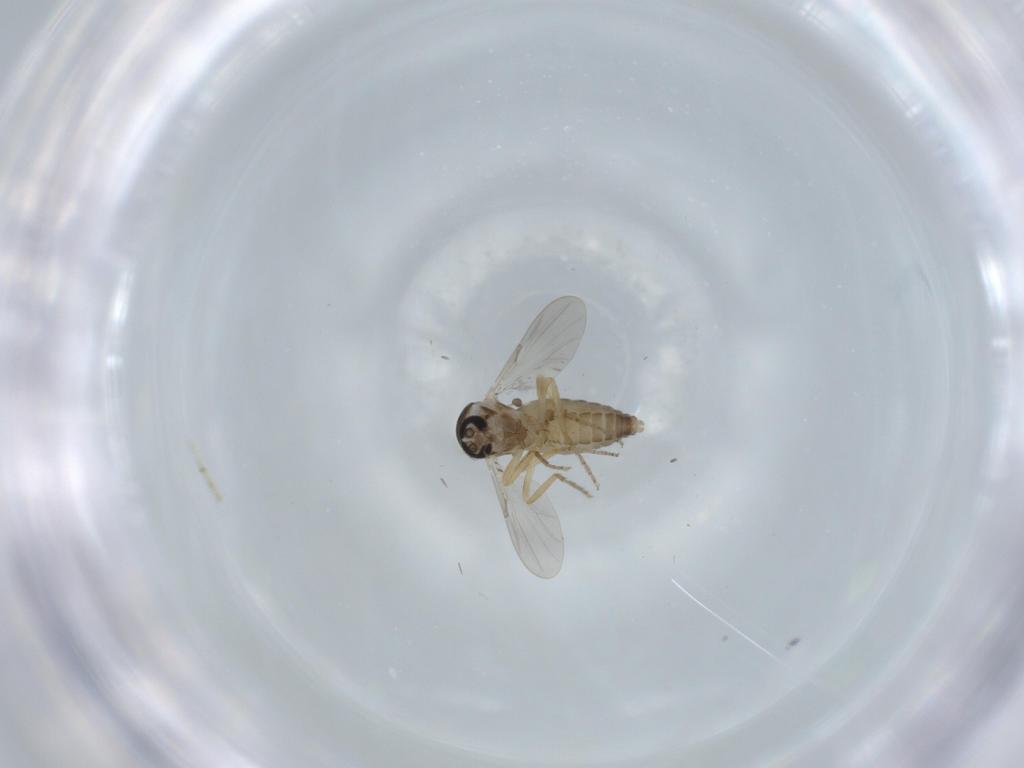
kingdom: Animalia
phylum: Arthropoda
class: Insecta
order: Diptera
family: Ceratopogonidae
